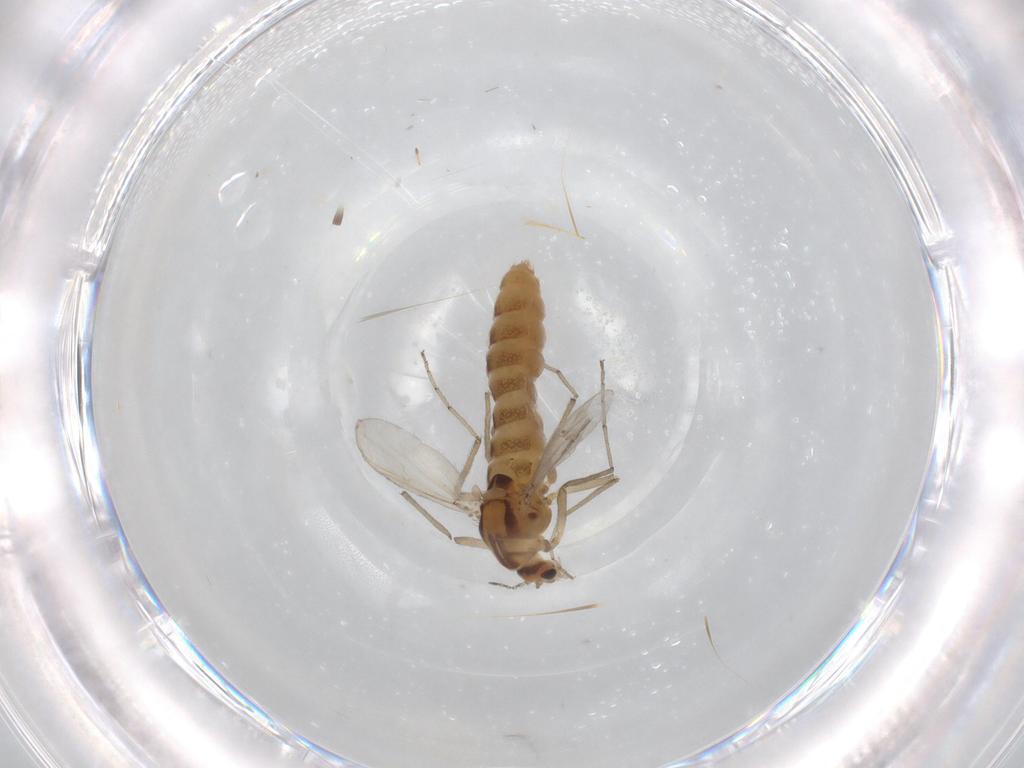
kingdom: Animalia
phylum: Arthropoda
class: Insecta
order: Diptera
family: Chironomidae
